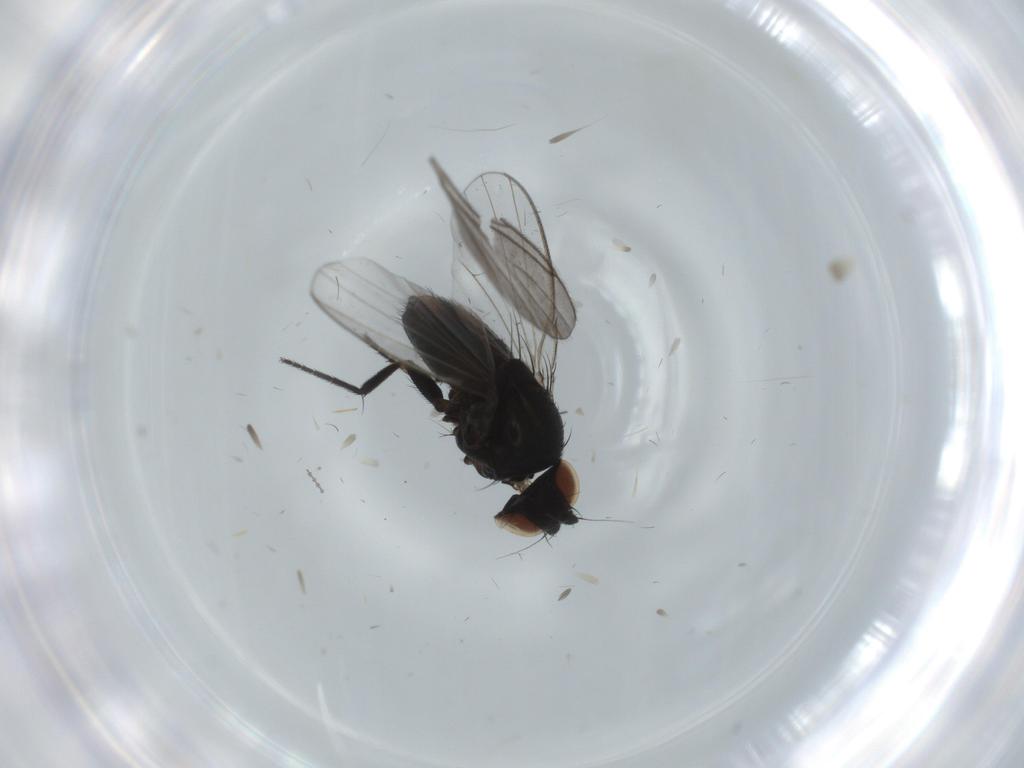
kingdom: Animalia
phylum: Arthropoda
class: Insecta
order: Diptera
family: Milichiidae
